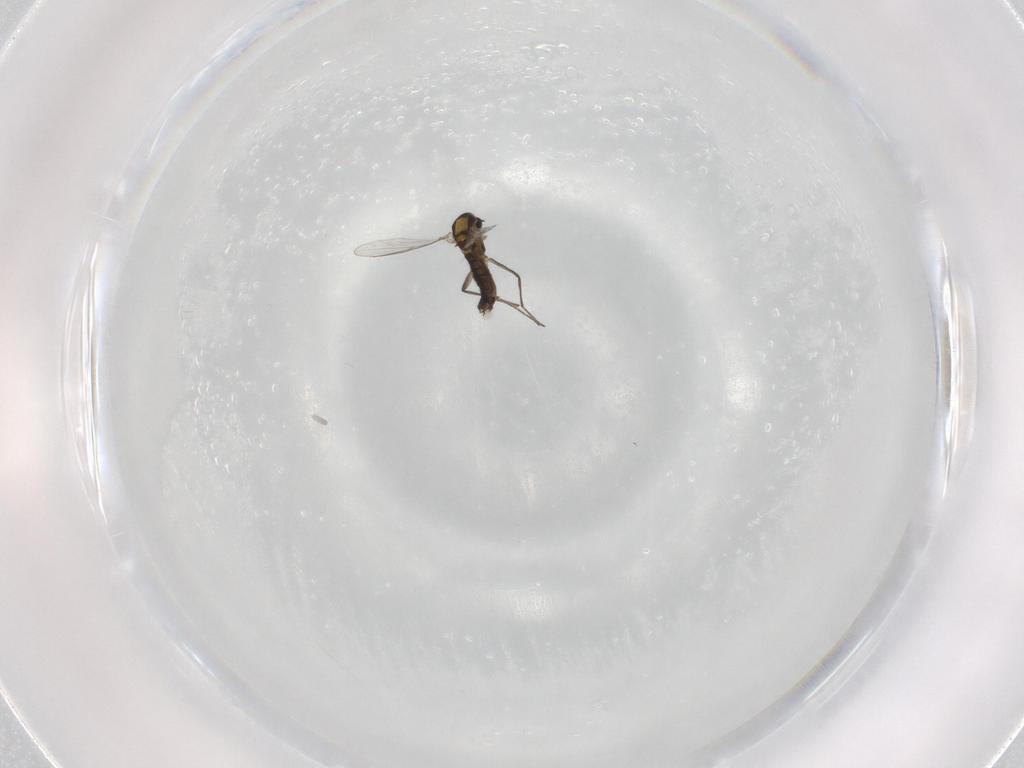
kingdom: Animalia
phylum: Arthropoda
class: Insecta
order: Diptera
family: Chironomidae
